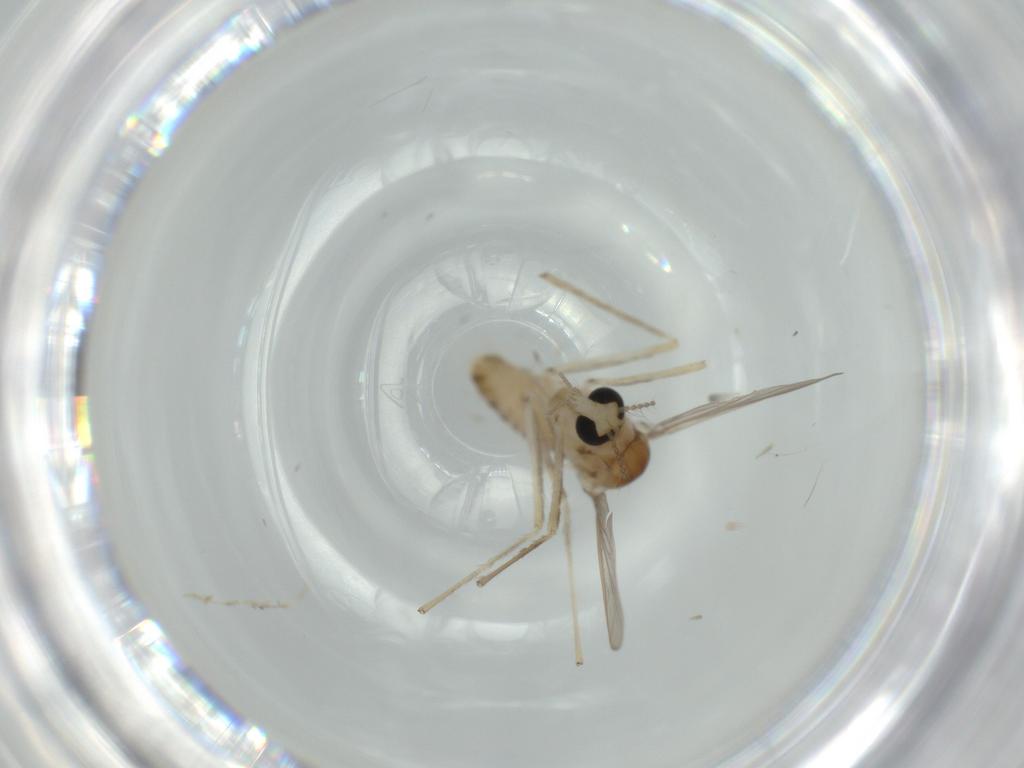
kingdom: Animalia
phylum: Arthropoda
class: Insecta
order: Diptera
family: Chironomidae
